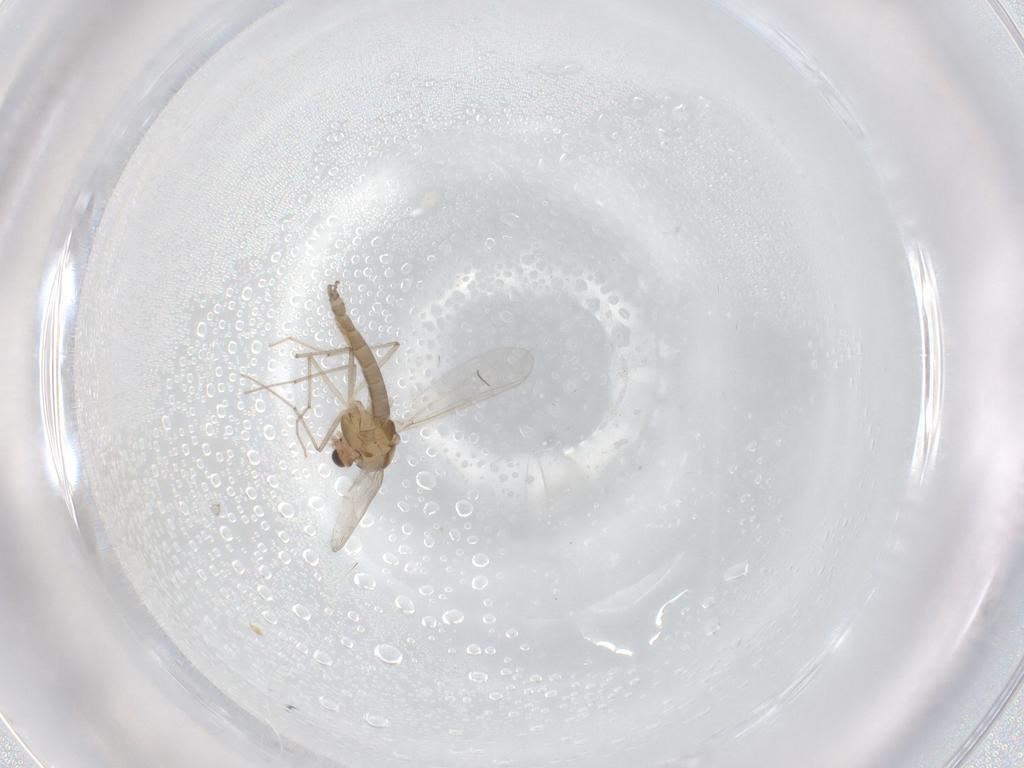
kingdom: Animalia
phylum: Arthropoda
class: Insecta
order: Diptera
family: Chironomidae
